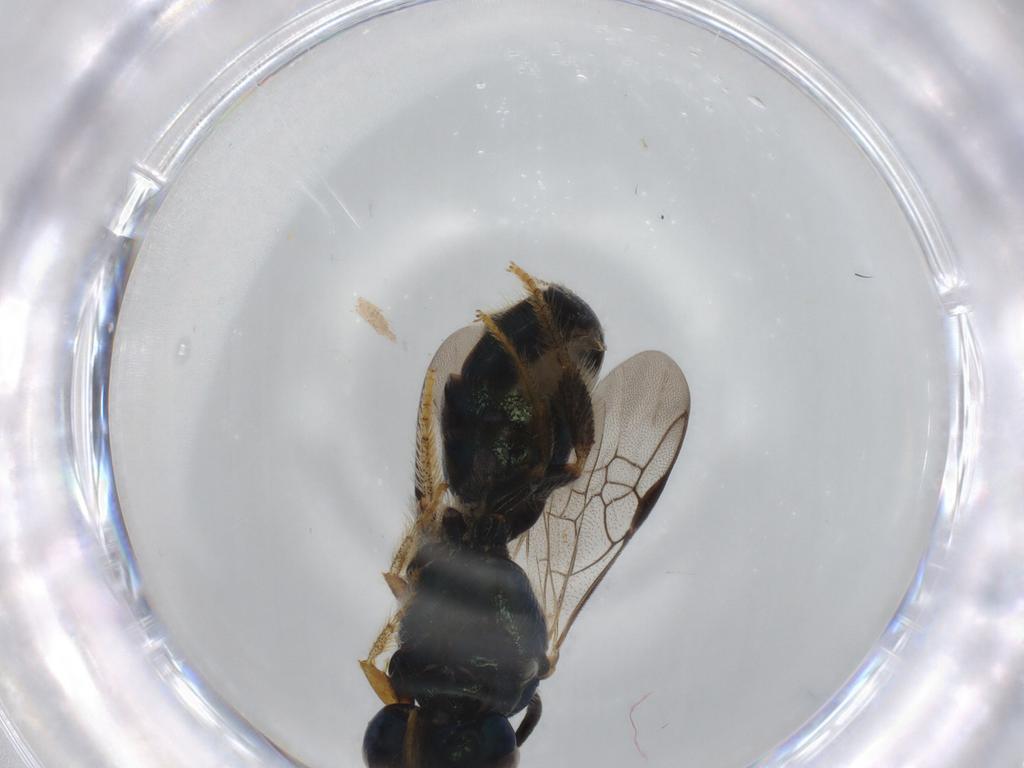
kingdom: Animalia
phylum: Arthropoda
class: Insecta
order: Hymenoptera
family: Apidae
